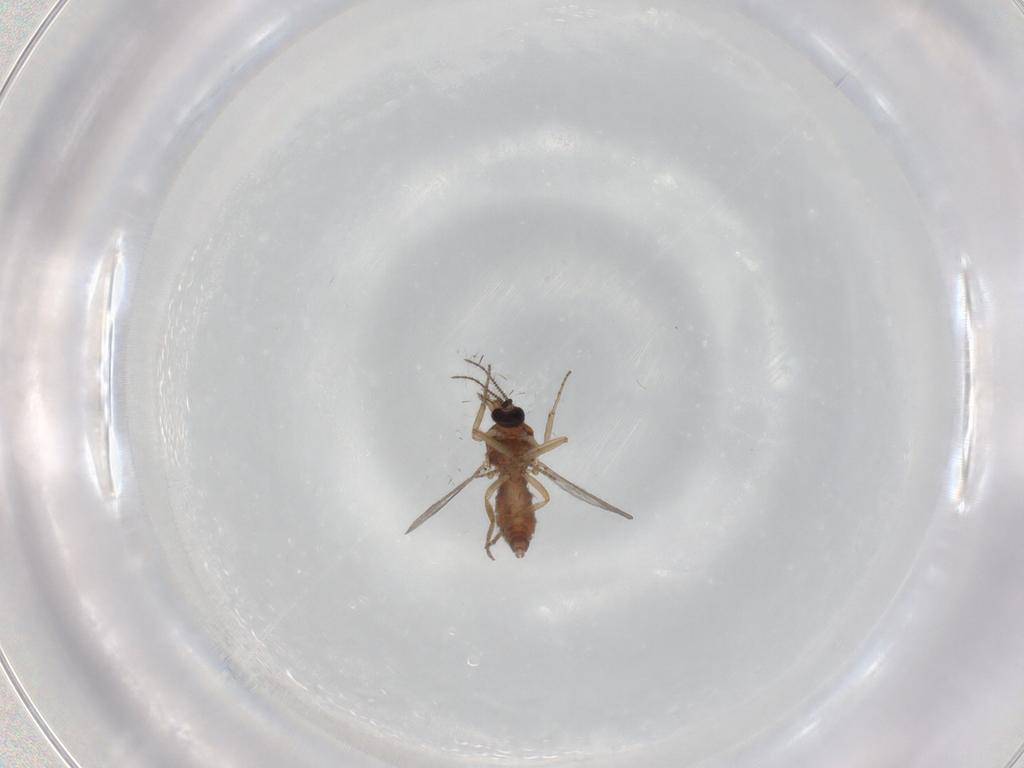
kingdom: Animalia
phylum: Arthropoda
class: Insecta
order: Diptera
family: Ceratopogonidae
